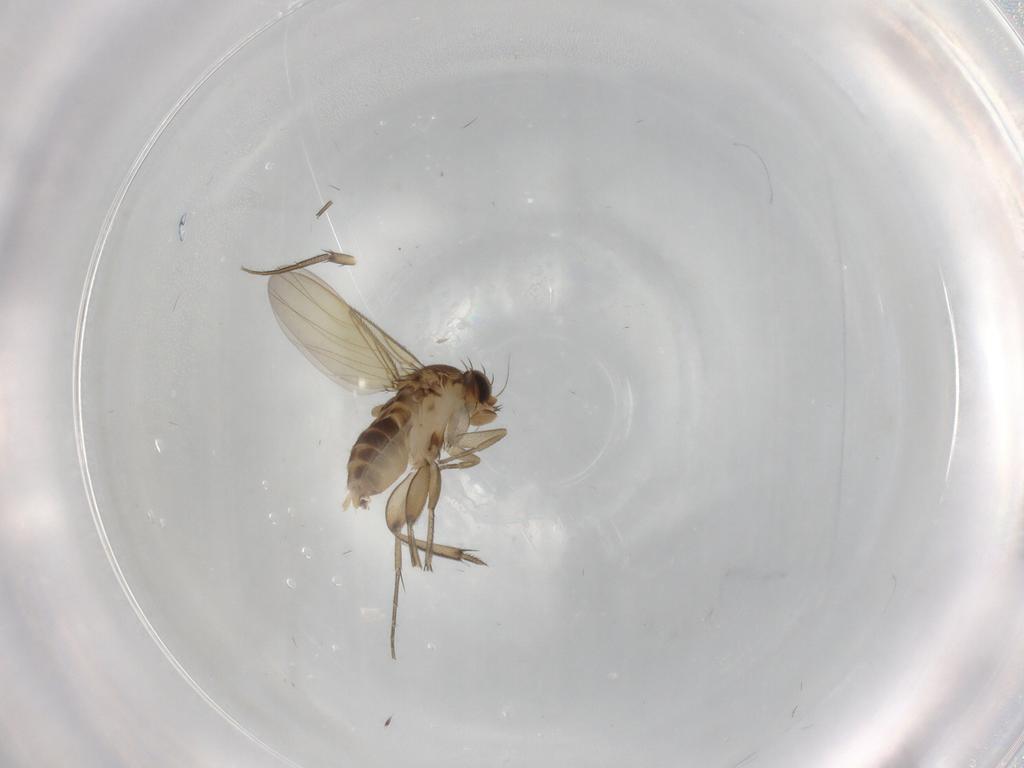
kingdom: Animalia
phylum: Arthropoda
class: Insecta
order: Diptera
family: Phoridae
